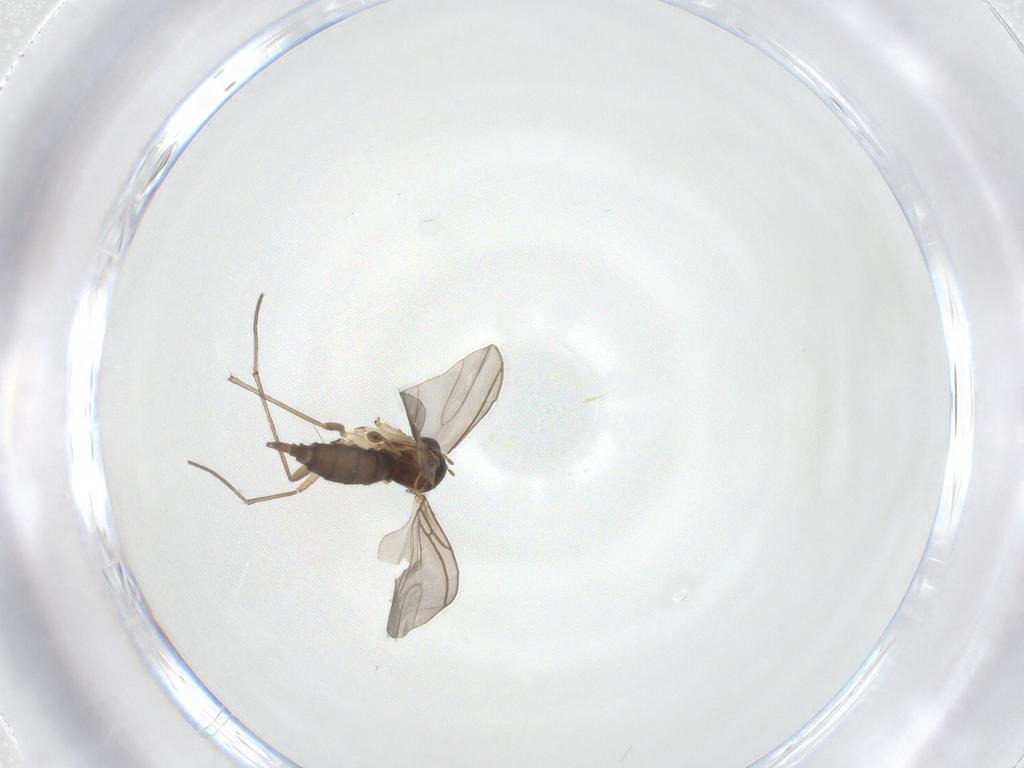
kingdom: Animalia
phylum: Arthropoda
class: Insecta
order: Diptera
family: Sciaridae
